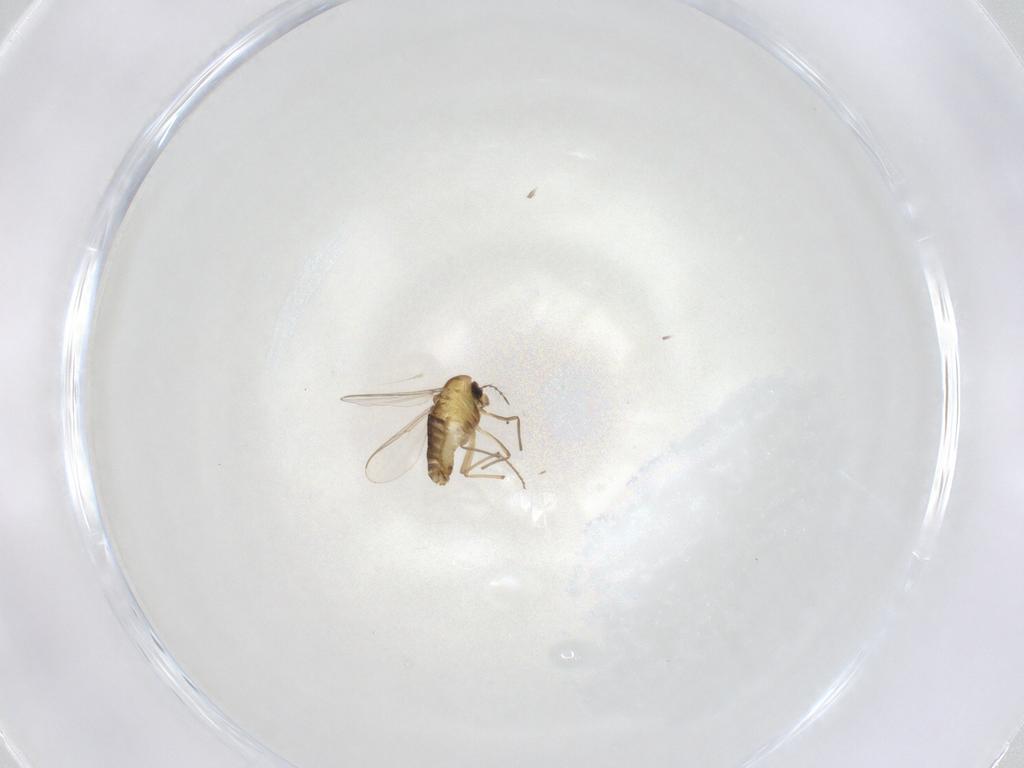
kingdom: Animalia
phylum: Arthropoda
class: Insecta
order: Diptera
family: Chironomidae
